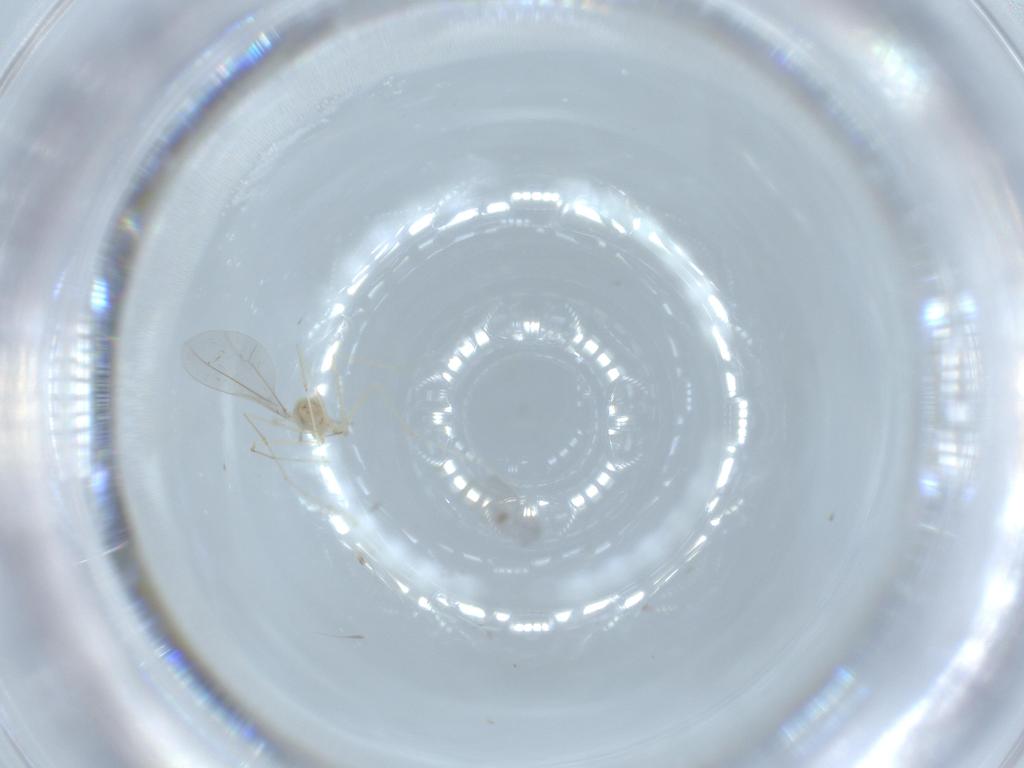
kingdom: Animalia
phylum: Arthropoda
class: Insecta
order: Diptera
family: Cecidomyiidae
